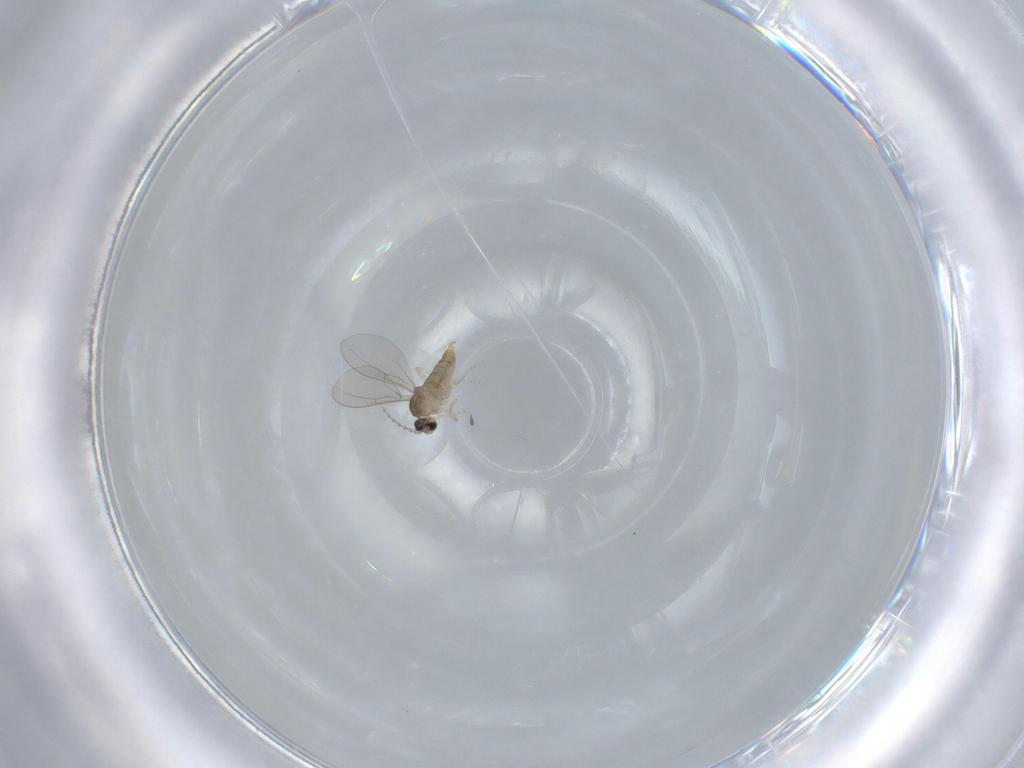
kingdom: Animalia
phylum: Arthropoda
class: Insecta
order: Diptera
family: Cecidomyiidae
